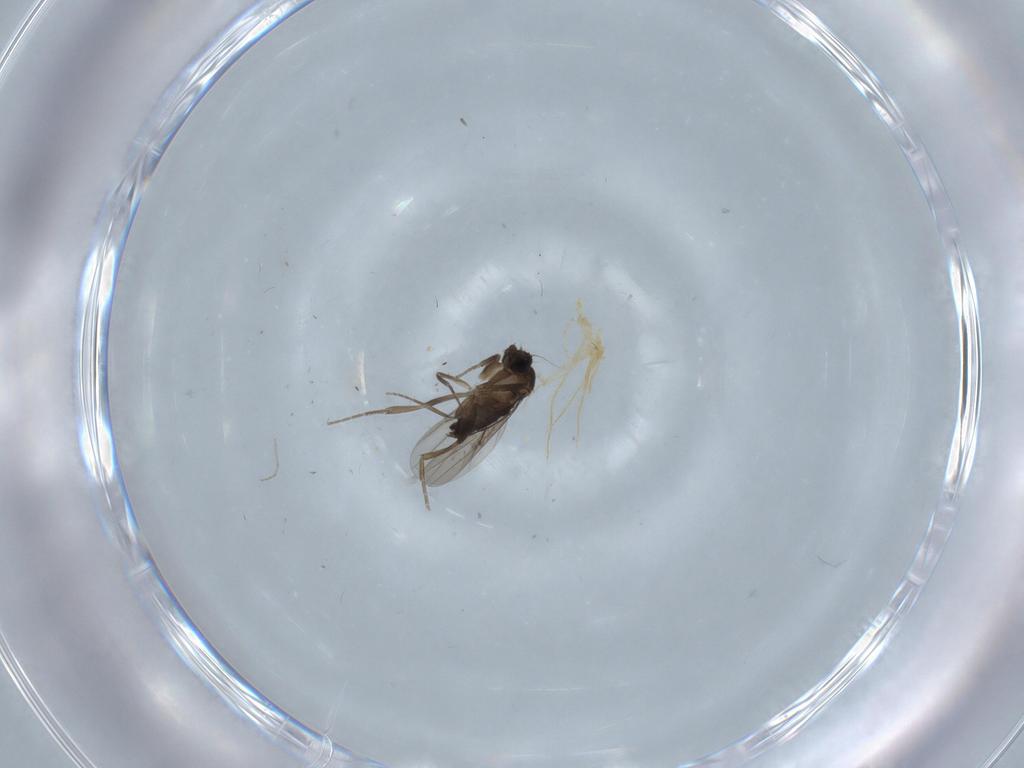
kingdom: Animalia
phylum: Arthropoda
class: Insecta
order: Diptera
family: Phoridae
